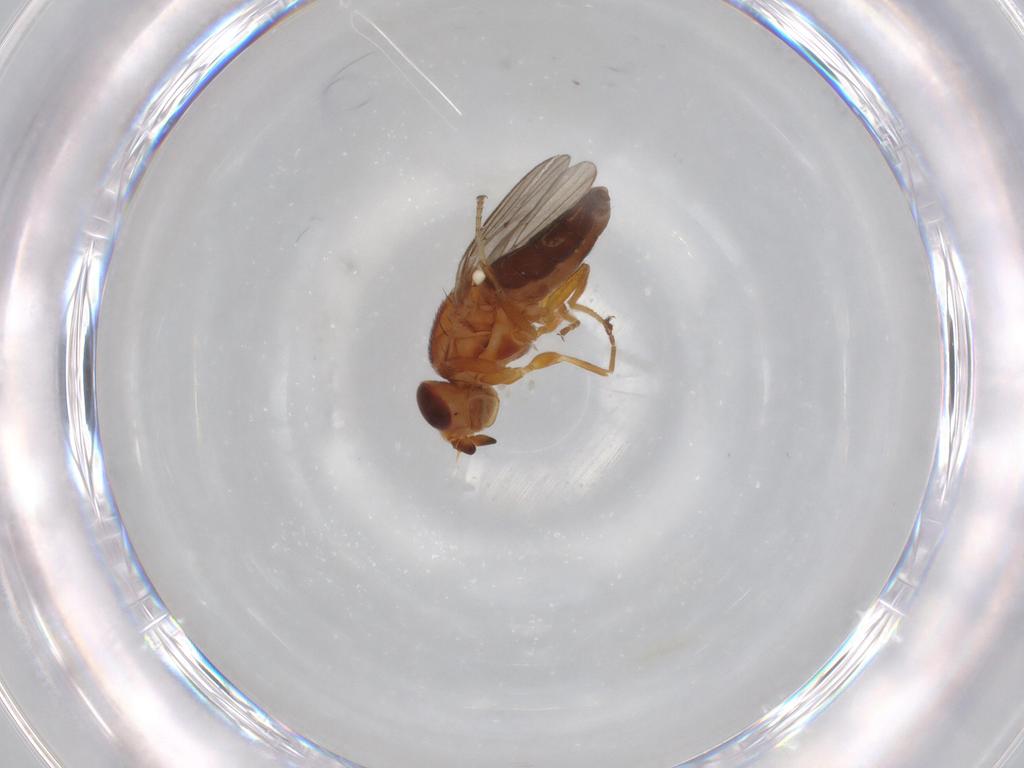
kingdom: Animalia
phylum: Arthropoda
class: Insecta
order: Diptera
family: Chloropidae
